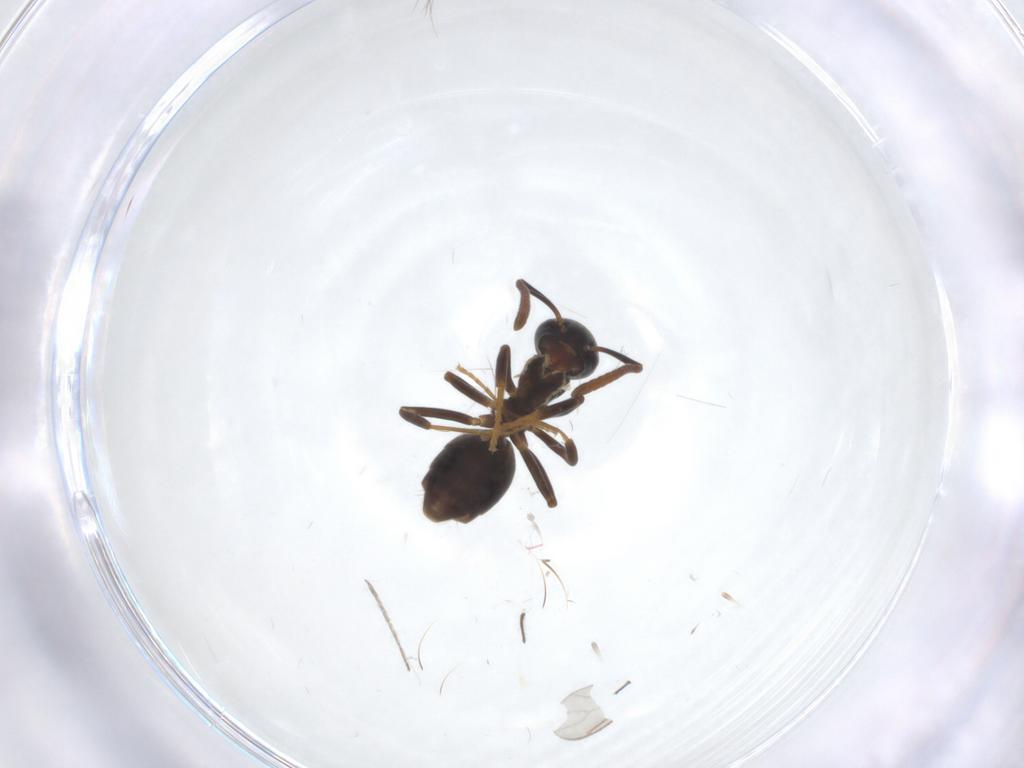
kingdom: Animalia
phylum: Arthropoda
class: Insecta
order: Hymenoptera
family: Formicidae
